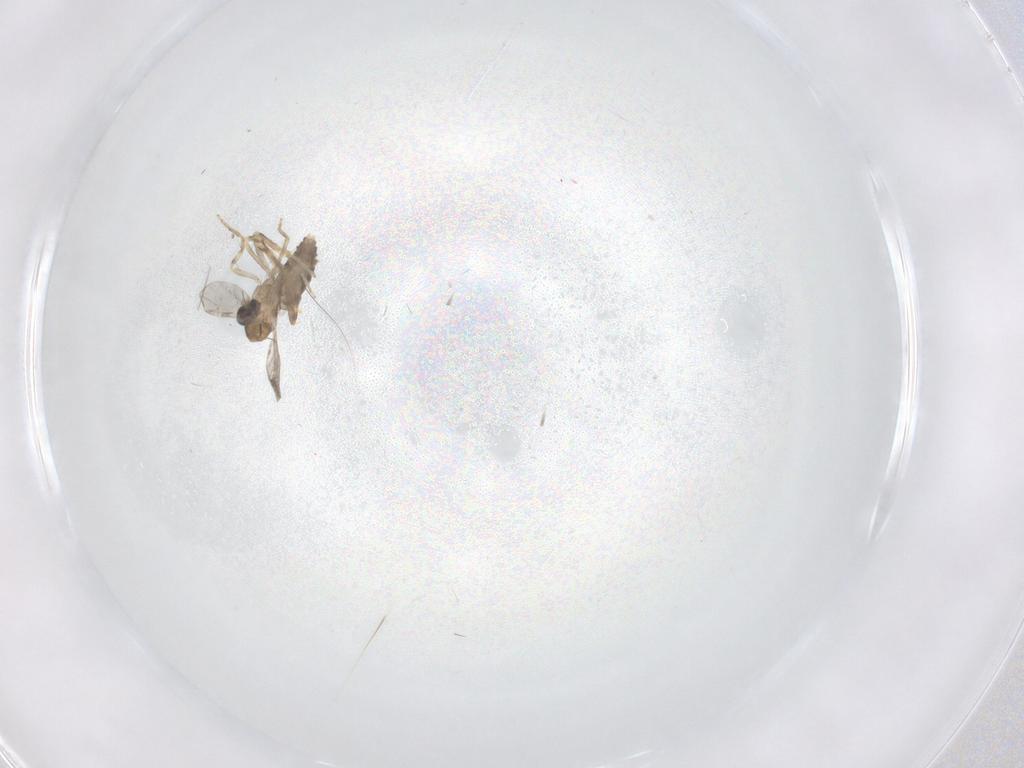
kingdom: Animalia
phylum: Arthropoda
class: Insecta
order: Diptera
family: Ceratopogonidae
